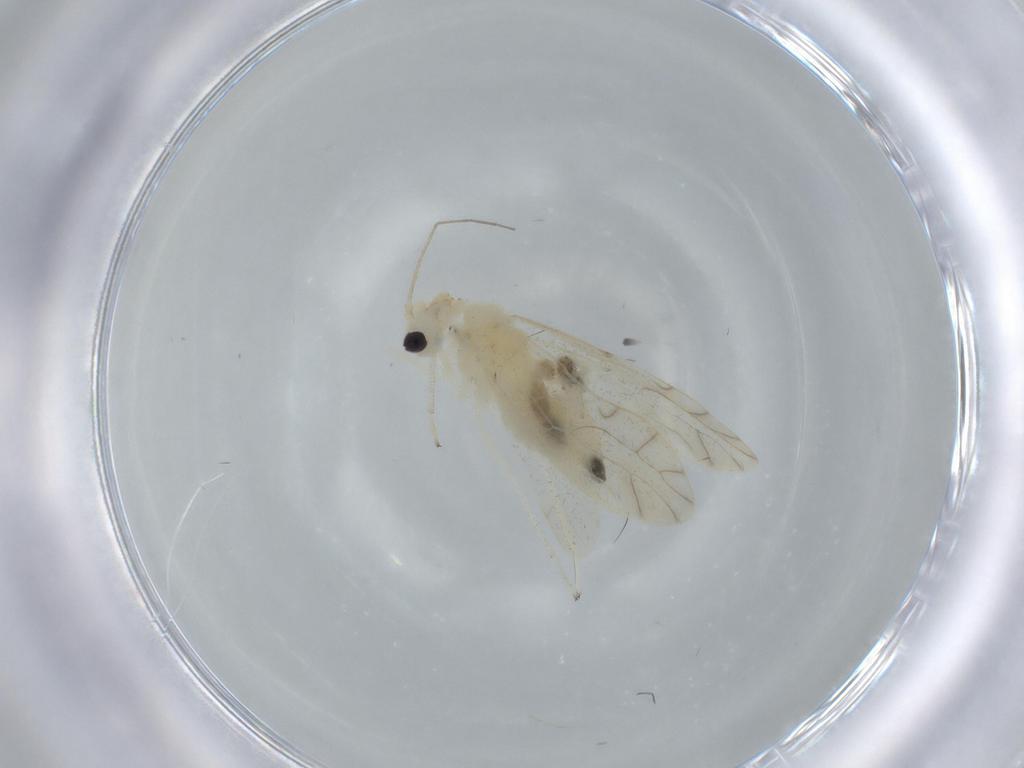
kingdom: Animalia
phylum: Arthropoda
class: Insecta
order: Psocodea
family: Caeciliusidae
